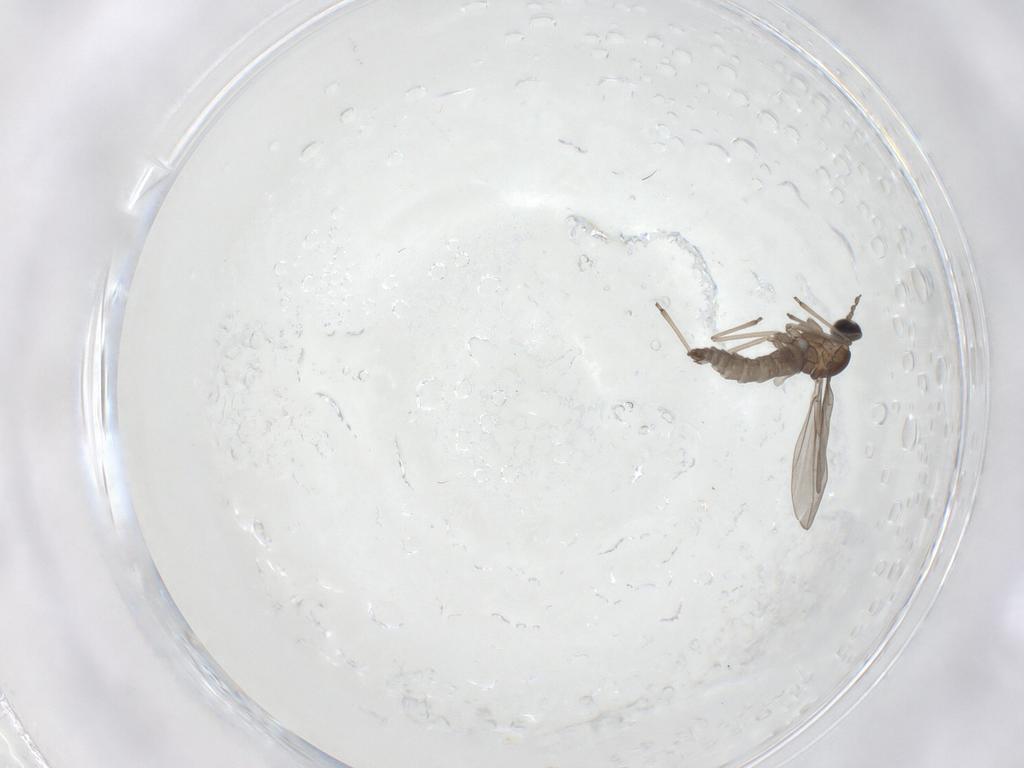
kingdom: Animalia
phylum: Arthropoda
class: Insecta
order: Diptera
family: Cecidomyiidae
